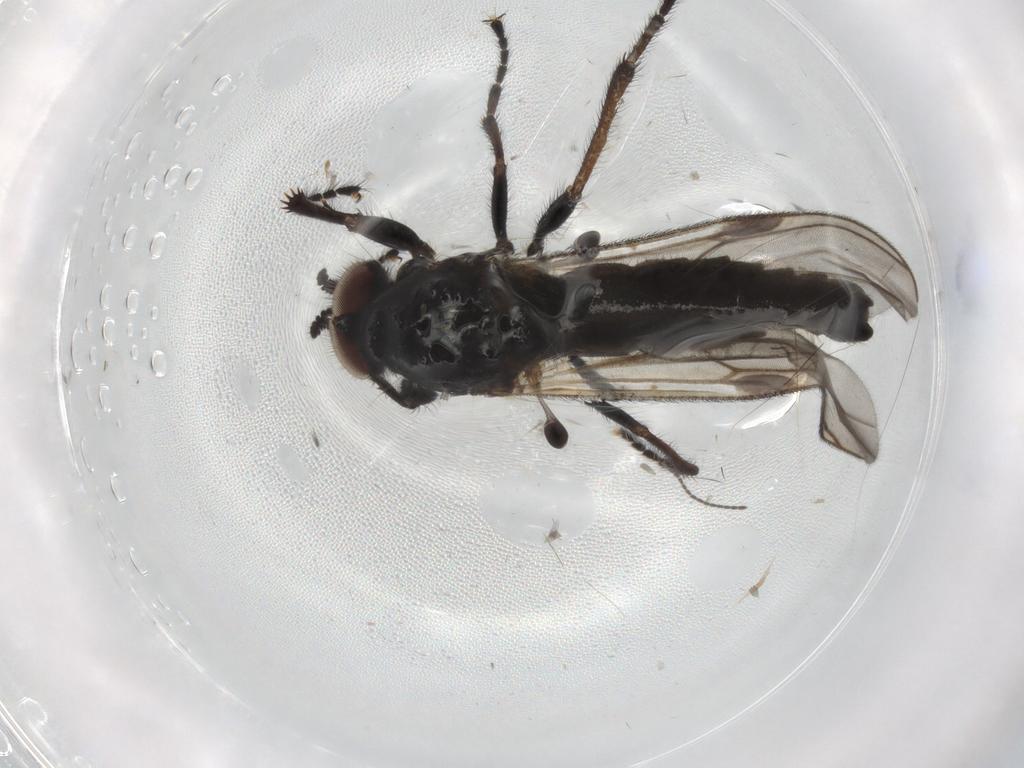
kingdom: Animalia
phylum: Arthropoda
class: Insecta
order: Diptera
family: Bibionidae
